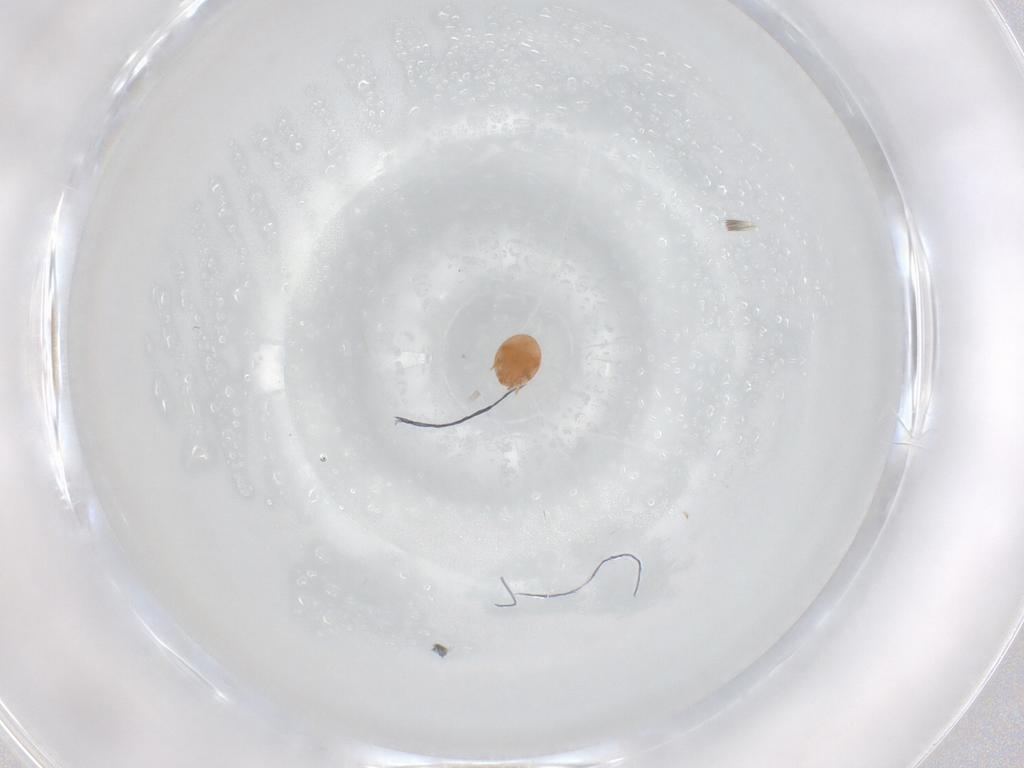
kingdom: Animalia
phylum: Arthropoda
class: Arachnida
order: Mesostigmata
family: Trematuridae
